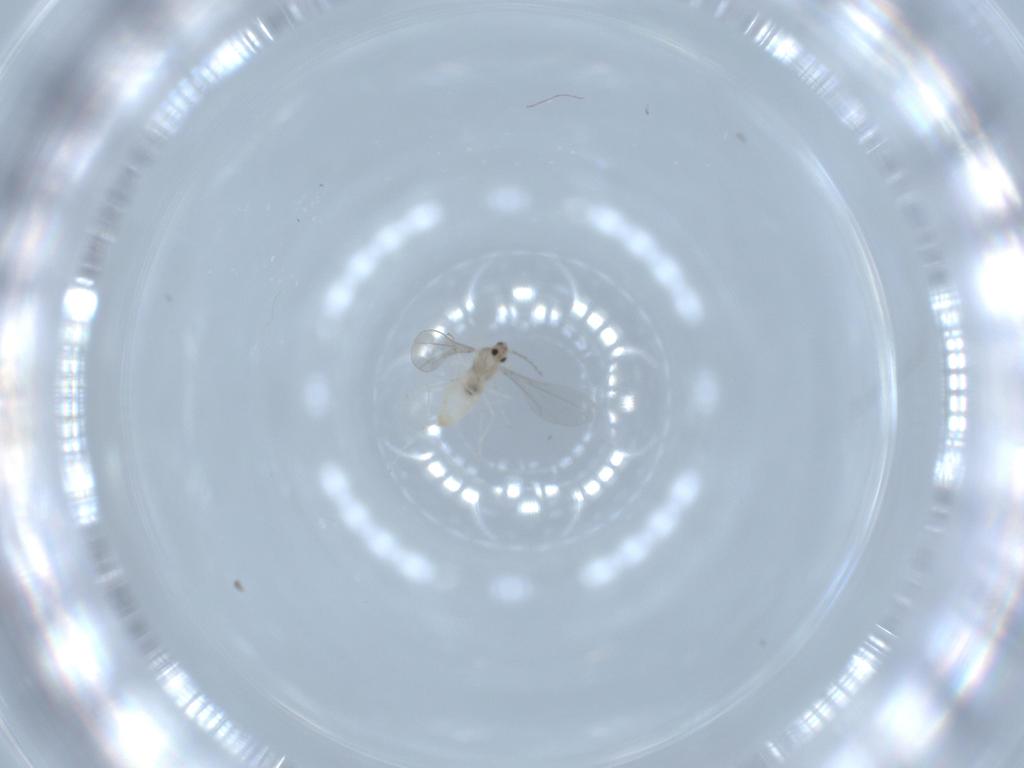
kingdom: Animalia
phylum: Arthropoda
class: Insecta
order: Diptera
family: Cecidomyiidae
